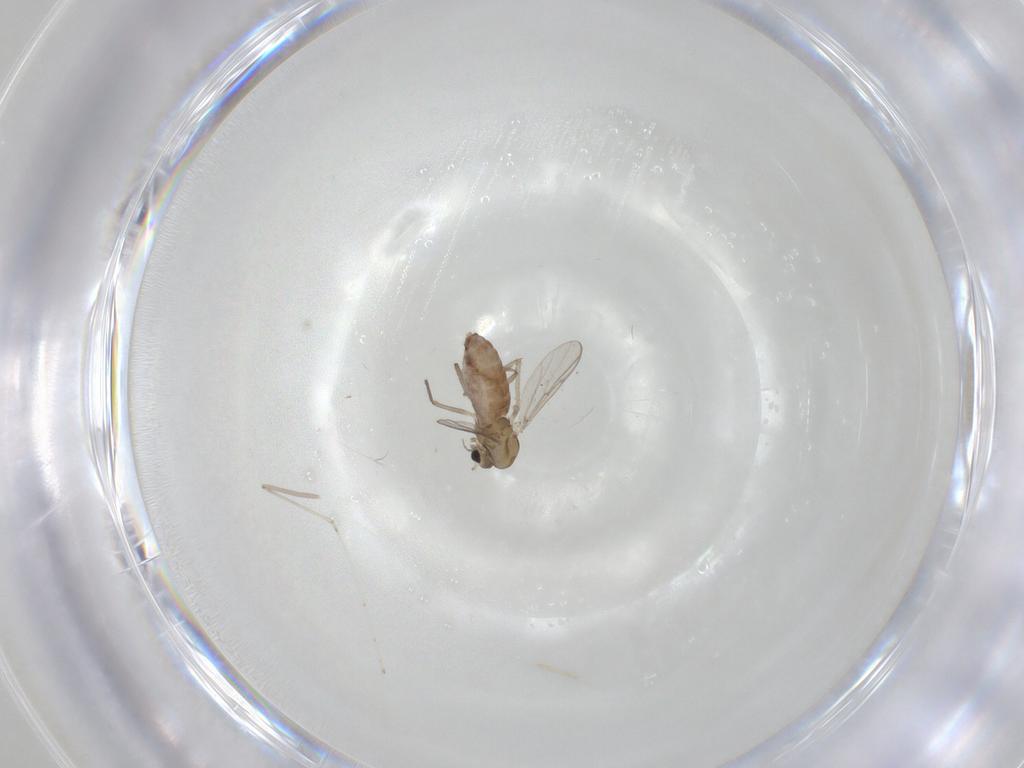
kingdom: Animalia
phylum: Arthropoda
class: Insecta
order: Diptera
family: Chironomidae
